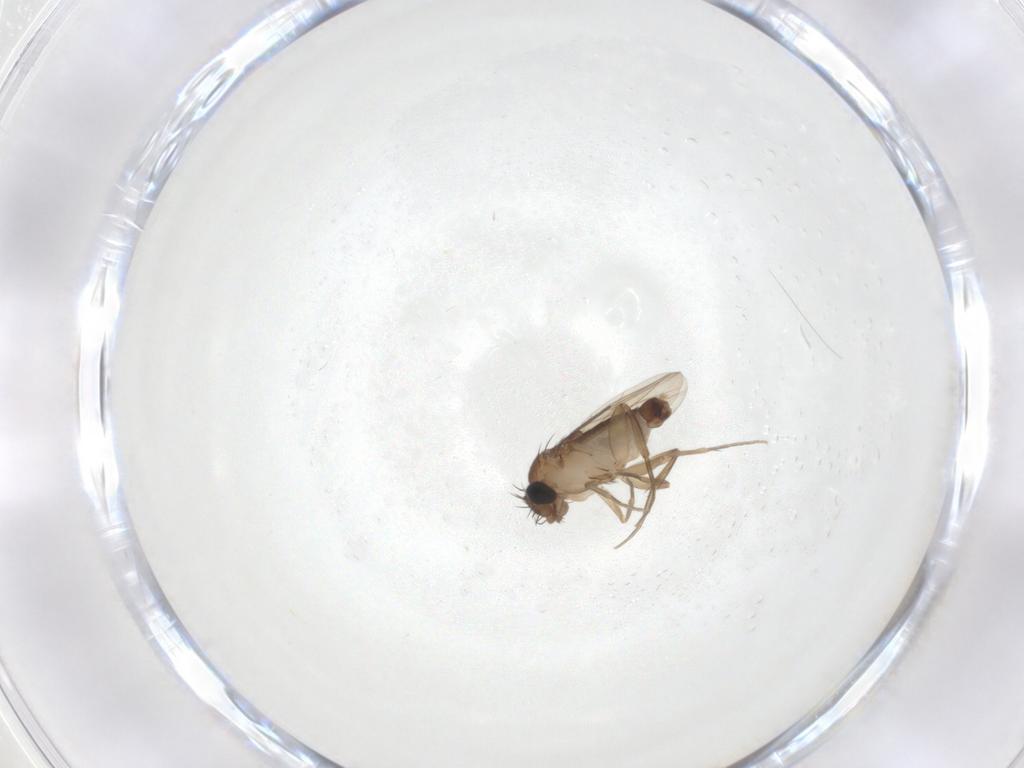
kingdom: Animalia
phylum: Arthropoda
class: Insecta
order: Diptera
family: Phoridae
